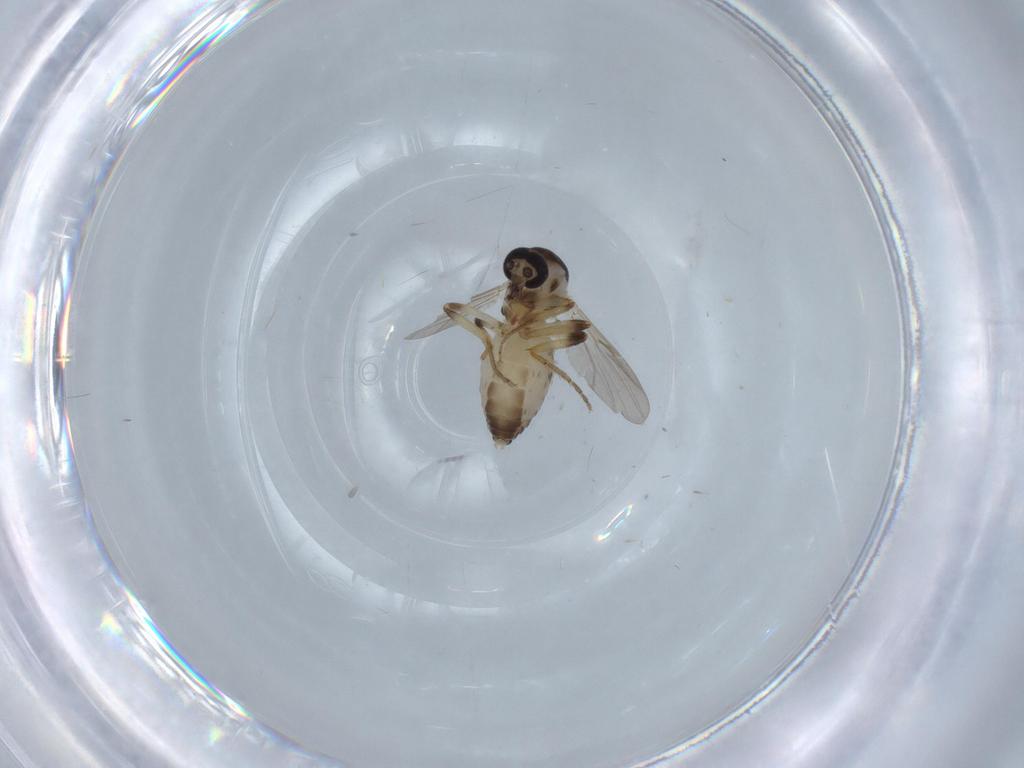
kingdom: Animalia
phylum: Arthropoda
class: Insecta
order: Diptera
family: Ceratopogonidae
